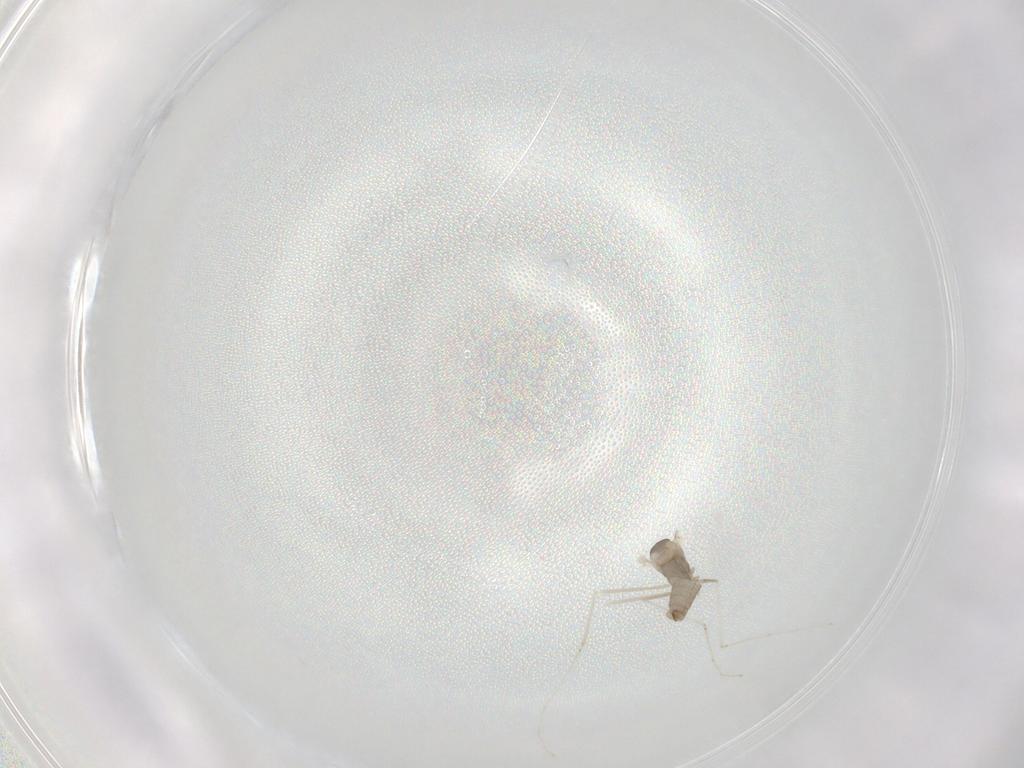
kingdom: Animalia
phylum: Arthropoda
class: Insecta
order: Diptera
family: Cecidomyiidae
